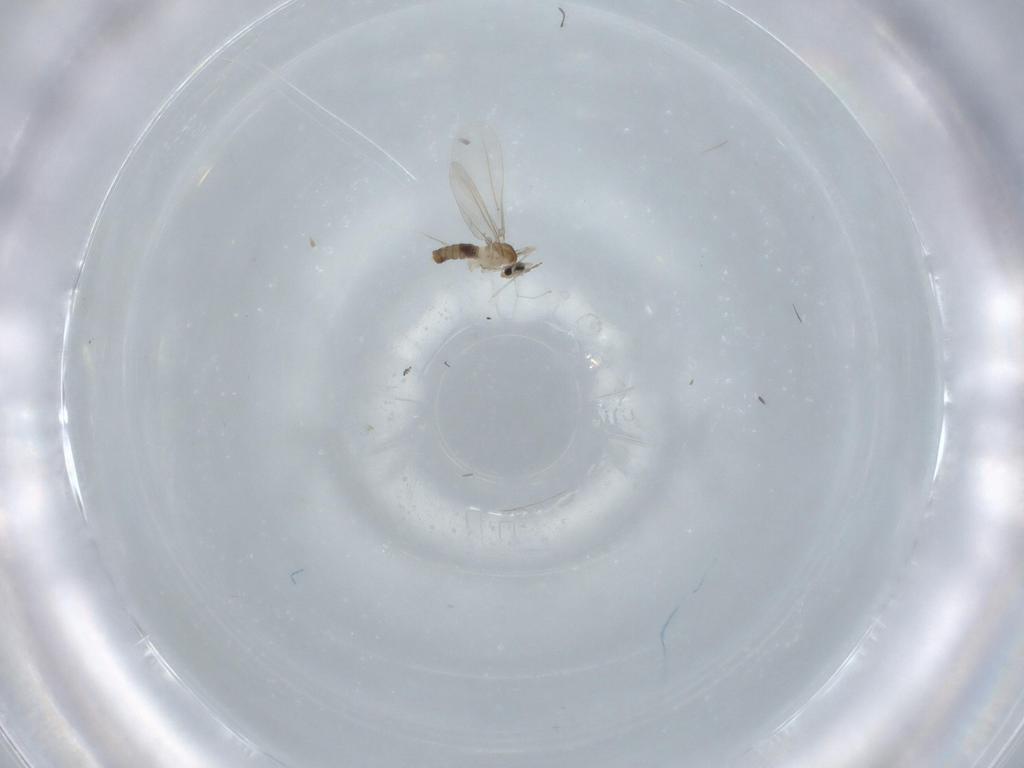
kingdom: Animalia
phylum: Arthropoda
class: Insecta
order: Diptera
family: Cecidomyiidae
